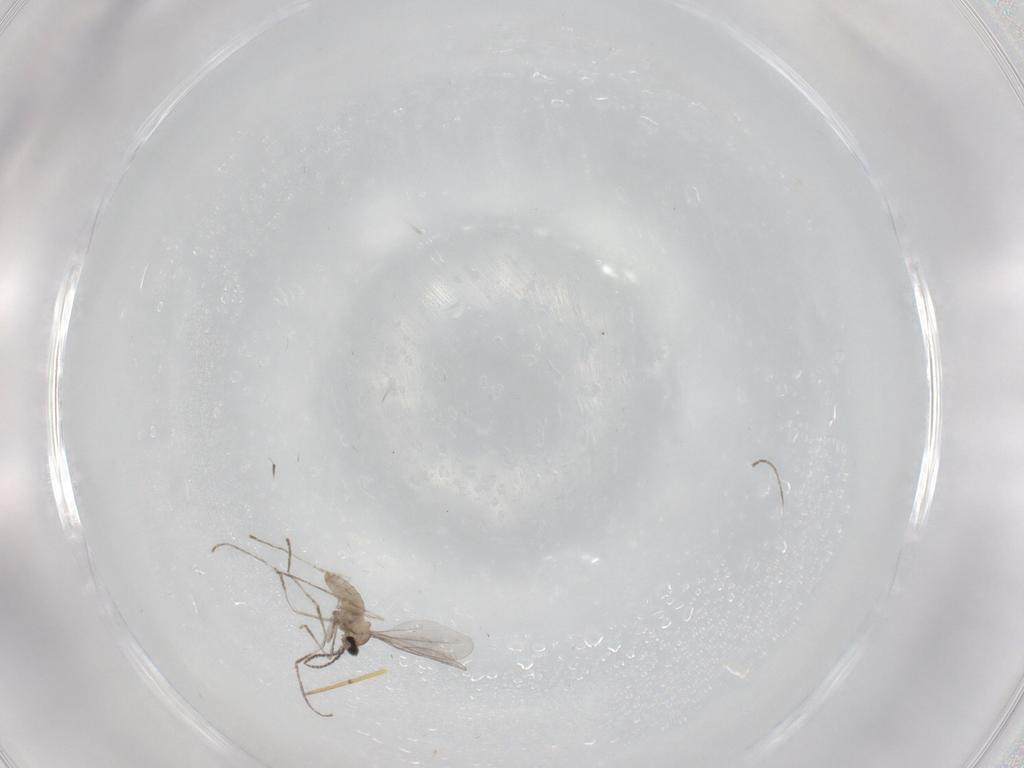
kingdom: Animalia
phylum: Arthropoda
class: Insecta
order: Diptera
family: Cecidomyiidae
